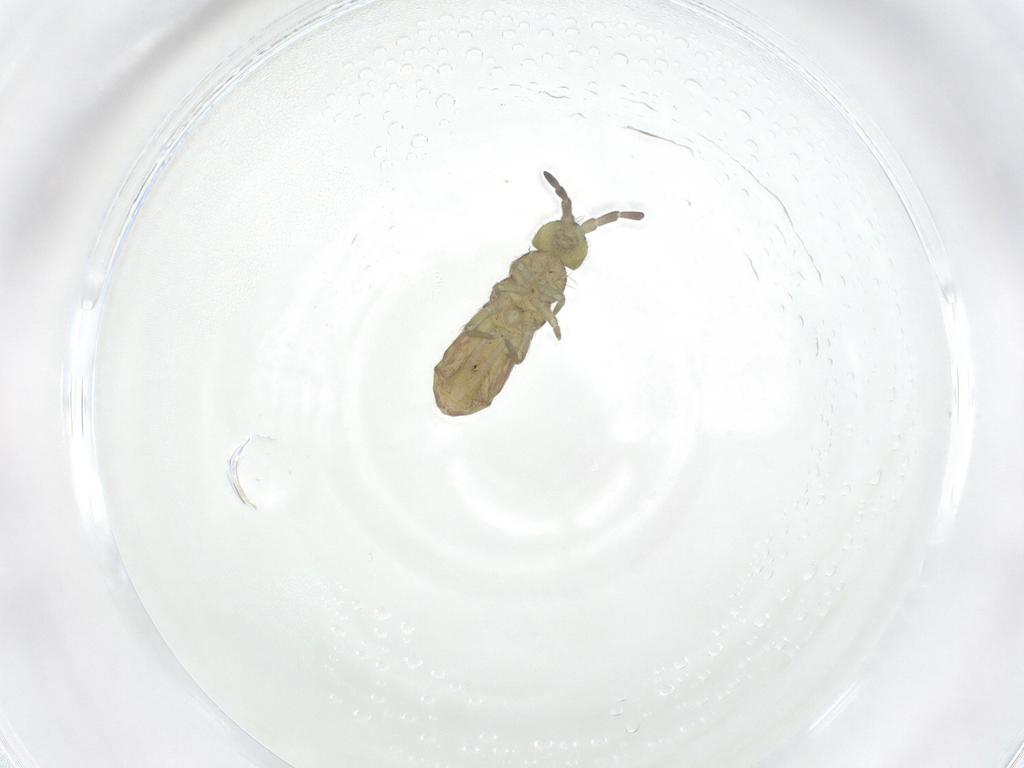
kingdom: Animalia
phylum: Arthropoda
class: Collembola
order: Entomobryomorpha
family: Isotomidae
